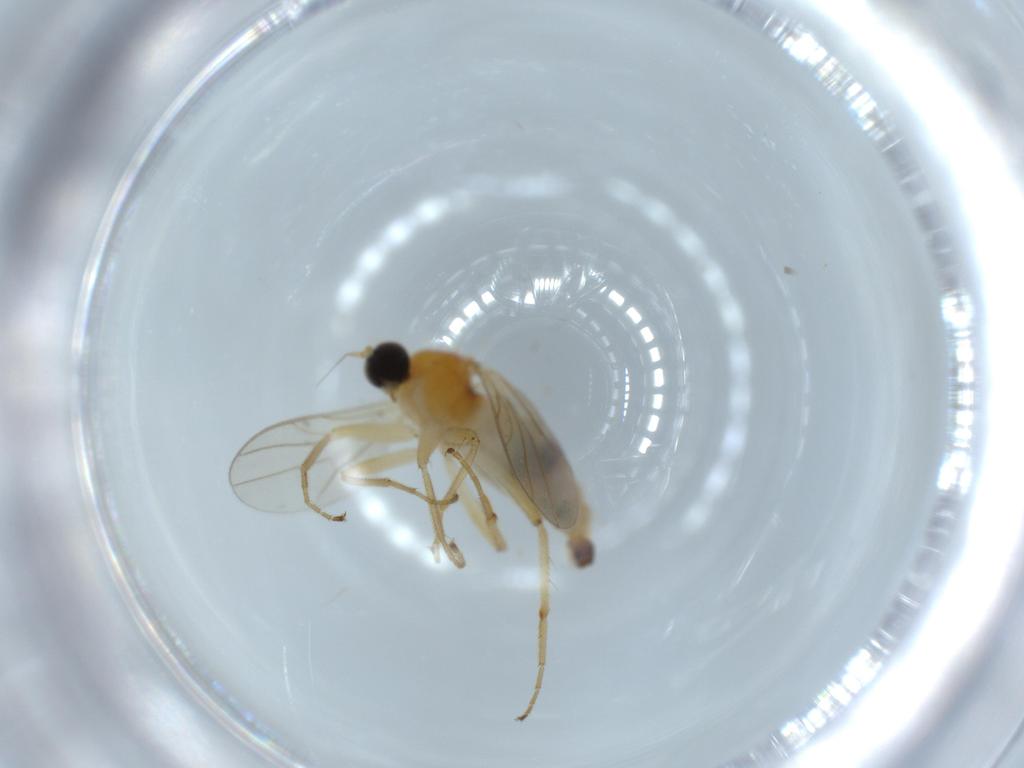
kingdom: Animalia
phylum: Arthropoda
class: Insecta
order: Diptera
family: Hybotidae
